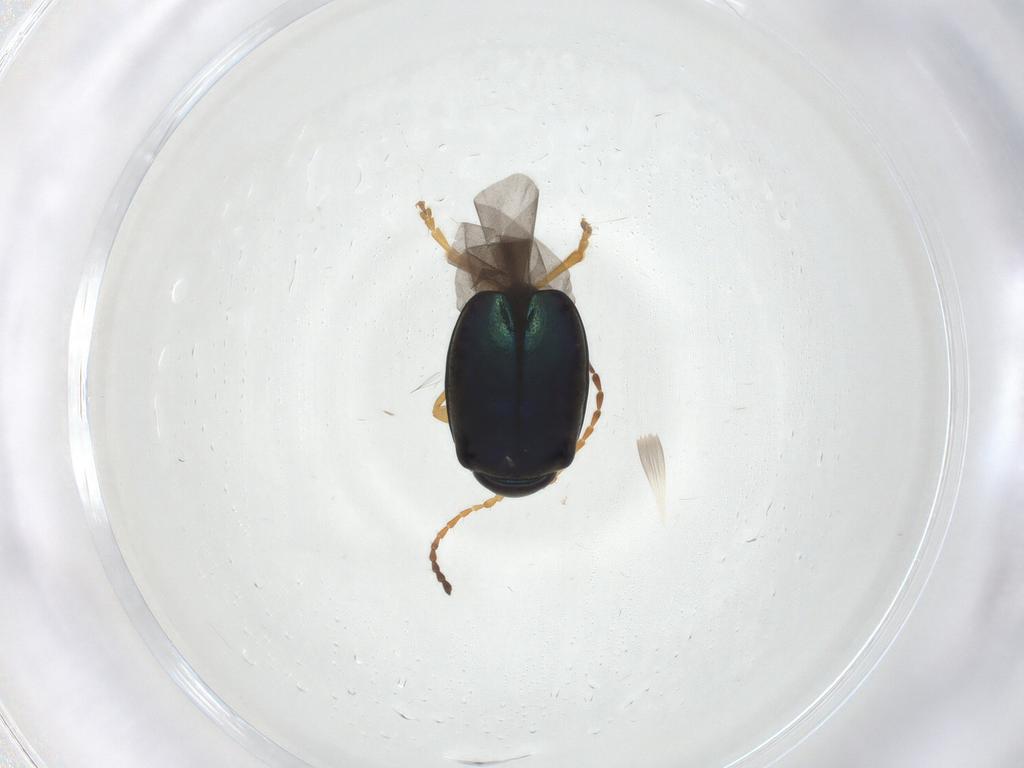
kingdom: Animalia
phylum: Arthropoda
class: Insecta
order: Coleoptera
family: Chrysomelidae
